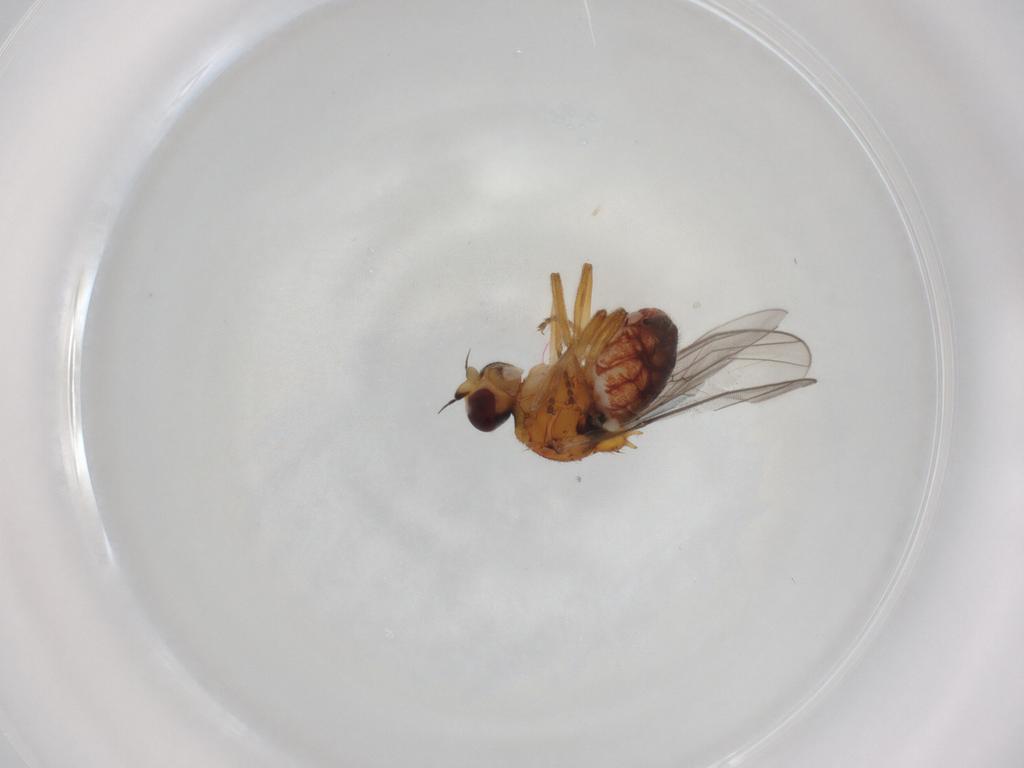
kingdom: Animalia
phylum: Arthropoda
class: Insecta
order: Diptera
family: Chloropidae
